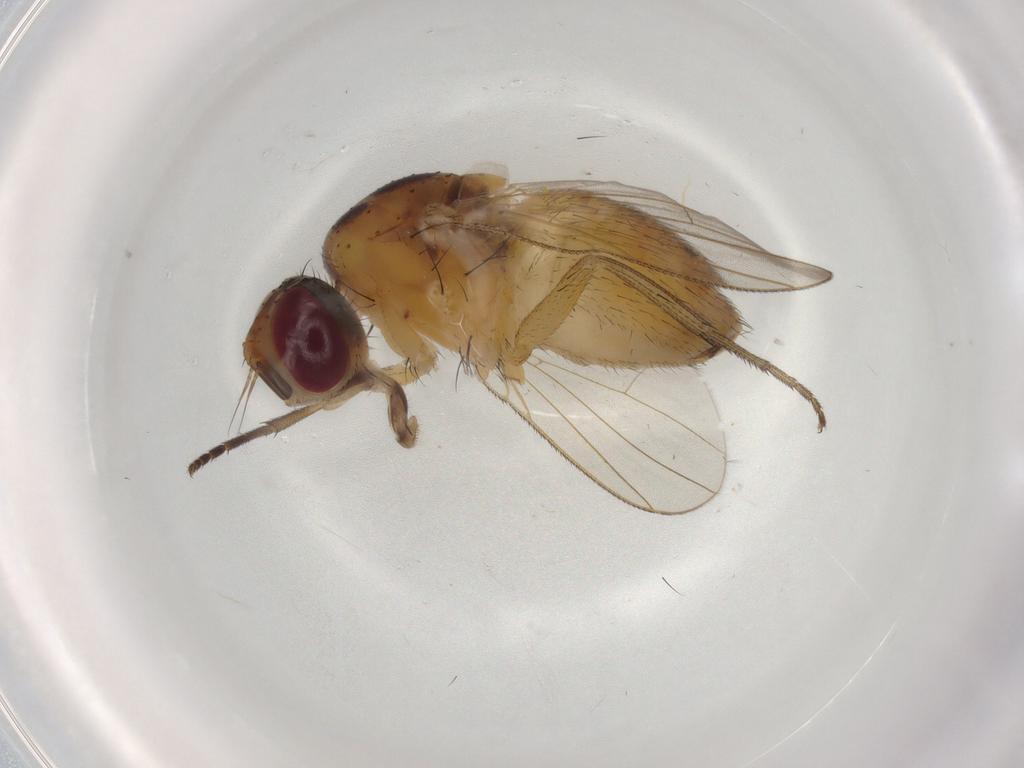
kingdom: Animalia
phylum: Arthropoda
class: Insecta
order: Diptera
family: Muscidae
